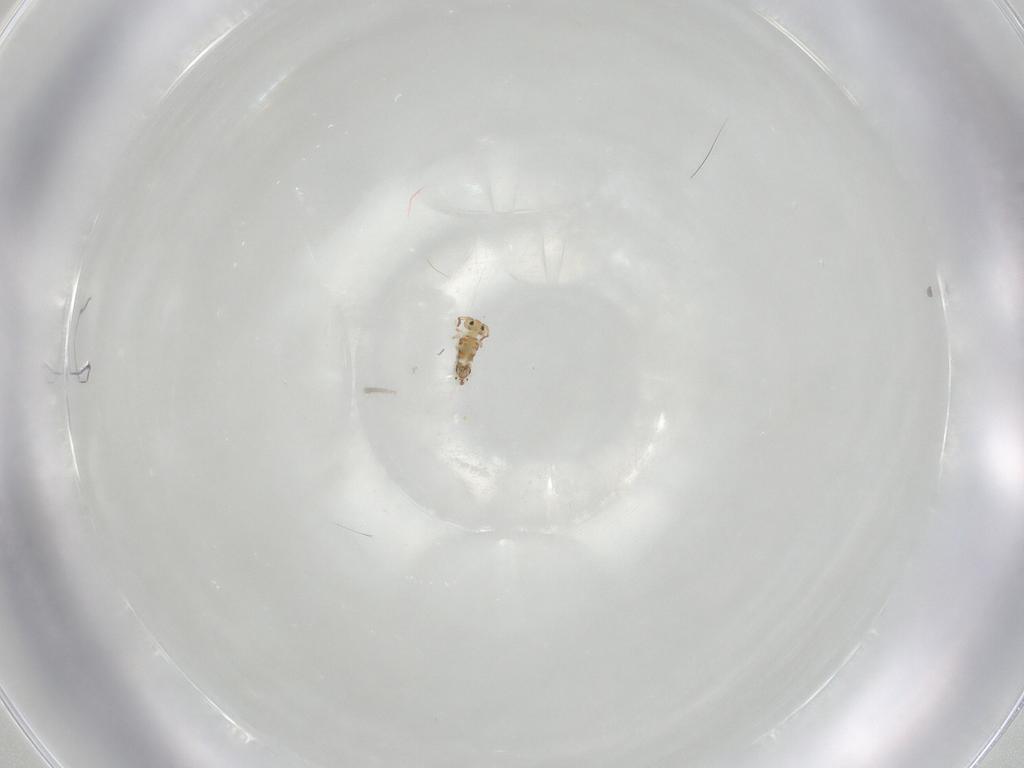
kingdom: Animalia
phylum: Arthropoda
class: Collembola
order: Symphypleona
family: Bourletiellidae
